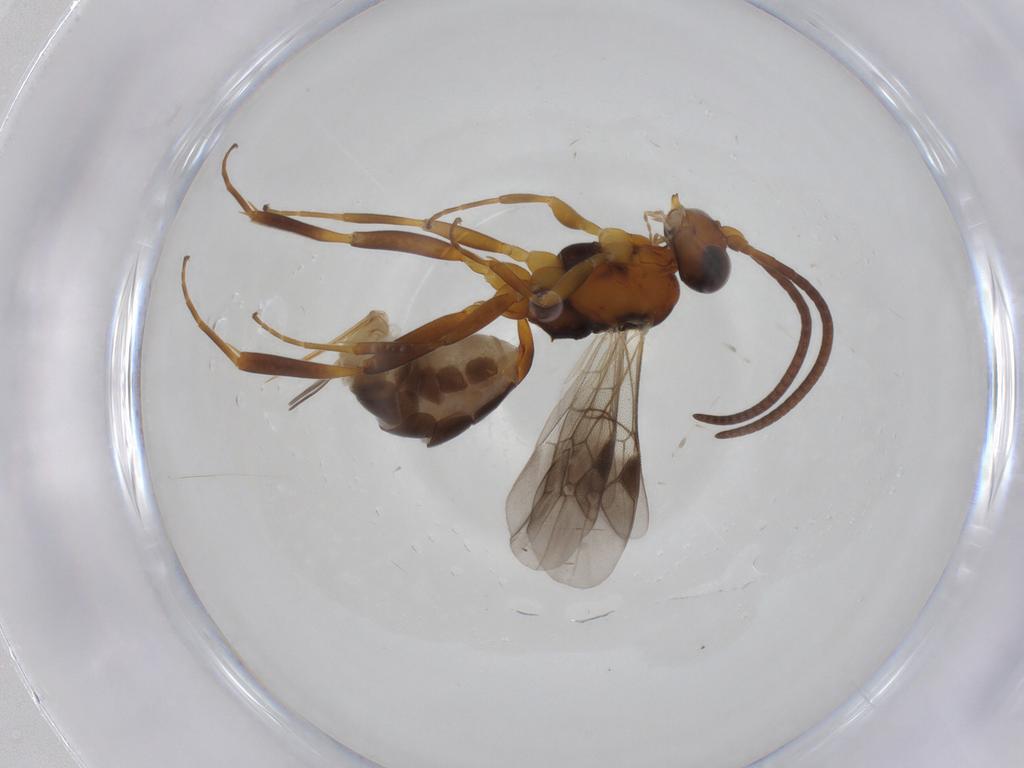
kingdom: Animalia
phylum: Arthropoda
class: Insecta
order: Hymenoptera
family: Ichneumonidae
